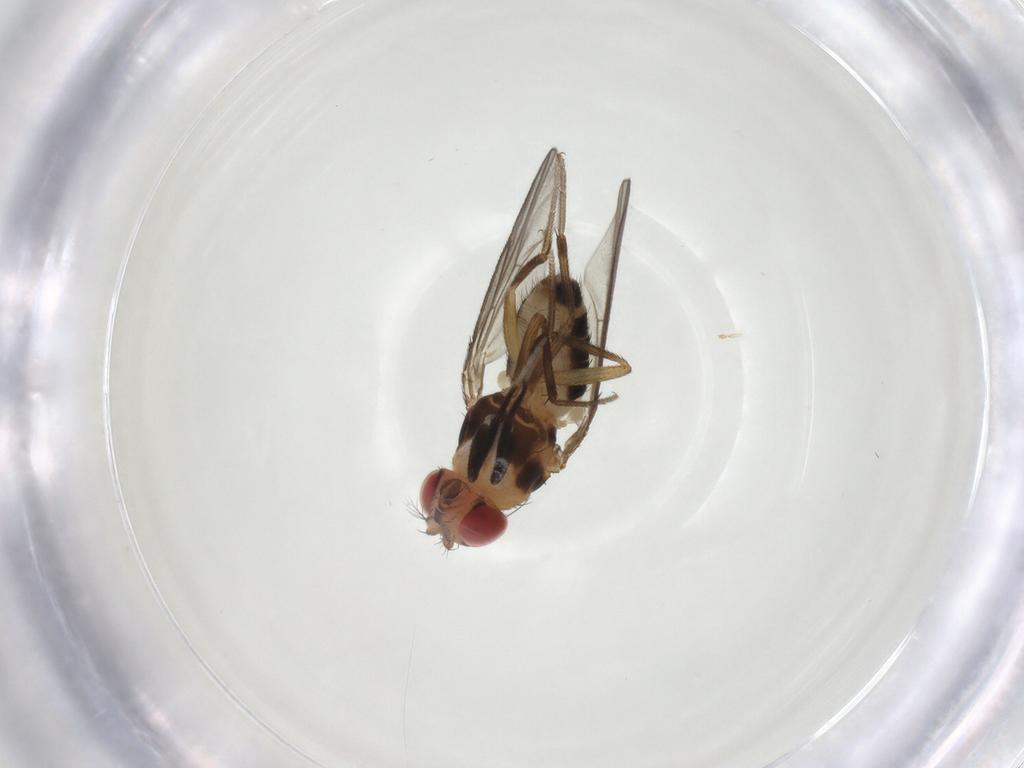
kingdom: Animalia
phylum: Arthropoda
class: Insecta
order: Diptera
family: Drosophilidae
